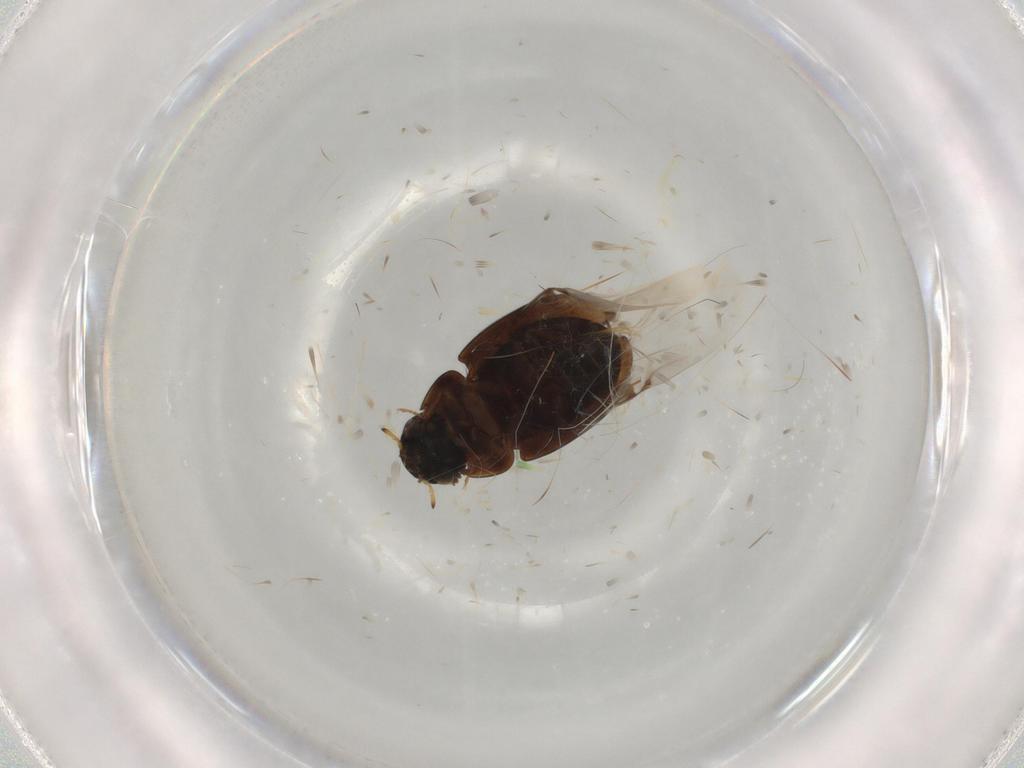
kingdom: Animalia
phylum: Arthropoda
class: Insecta
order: Coleoptera
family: Hydrophilidae
